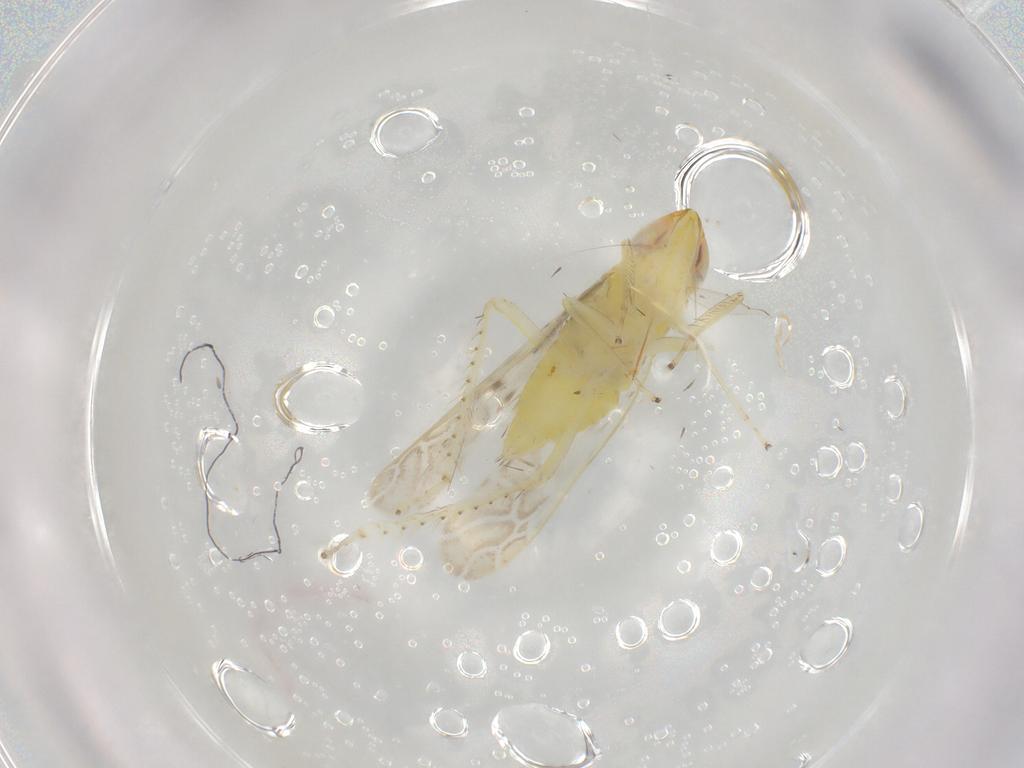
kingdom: Animalia
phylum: Arthropoda
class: Insecta
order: Hemiptera
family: Cicadellidae
